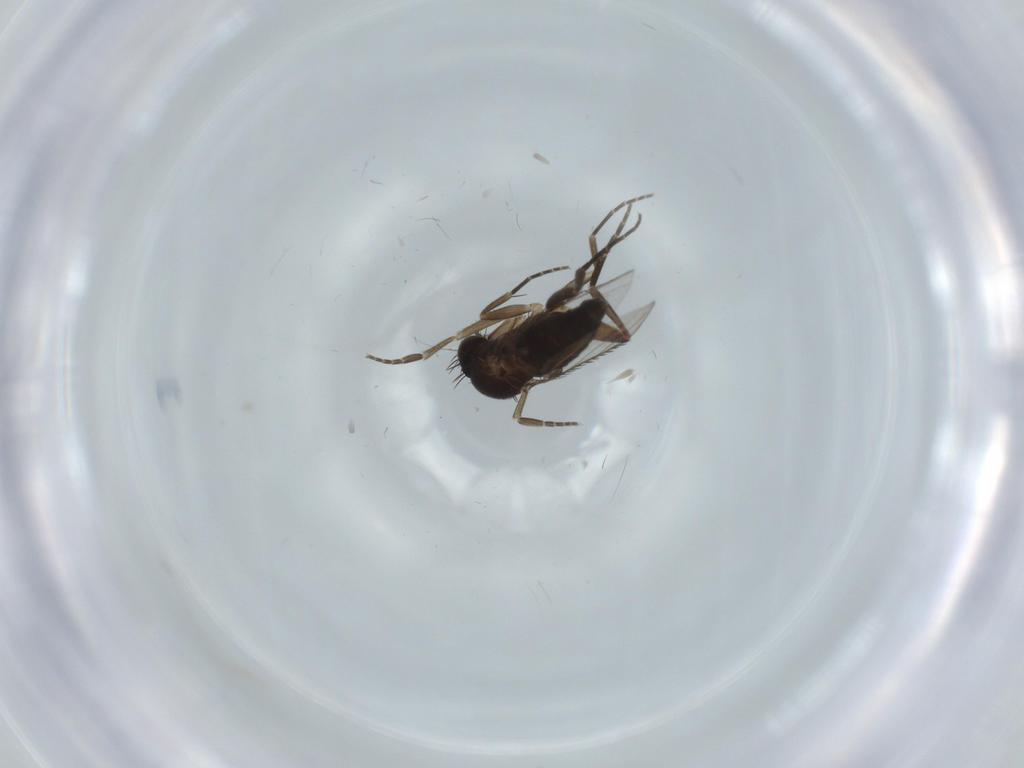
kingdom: Animalia
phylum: Arthropoda
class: Insecta
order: Diptera
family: Phoridae
